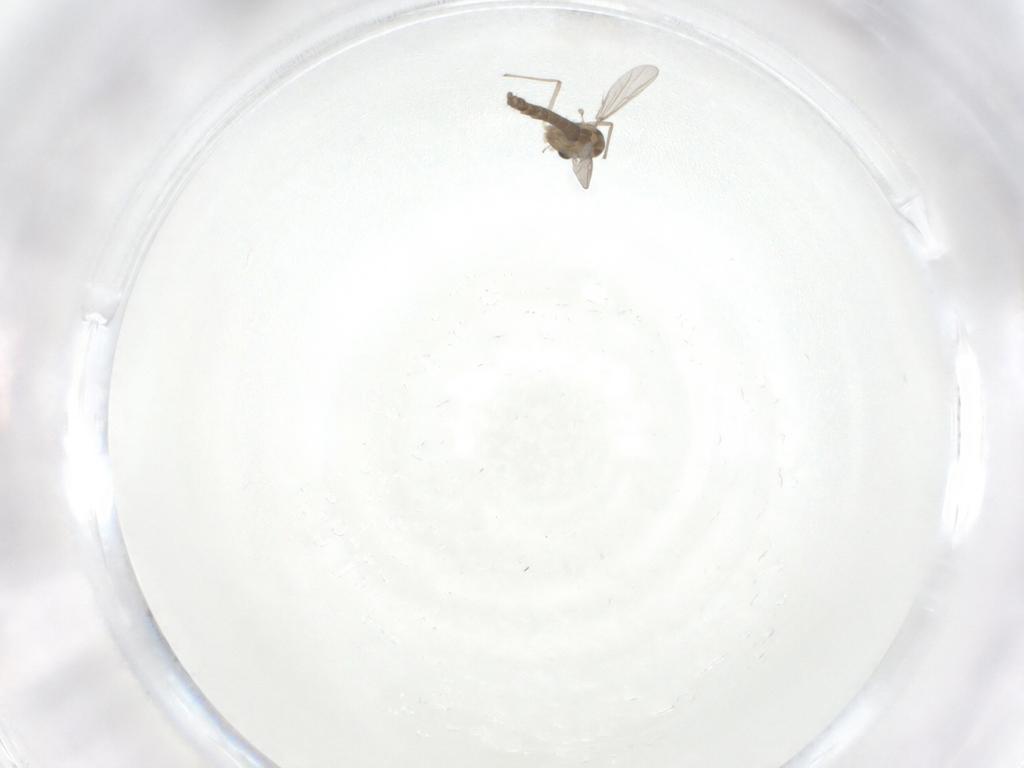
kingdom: Animalia
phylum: Arthropoda
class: Insecta
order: Diptera
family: Chironomidae
